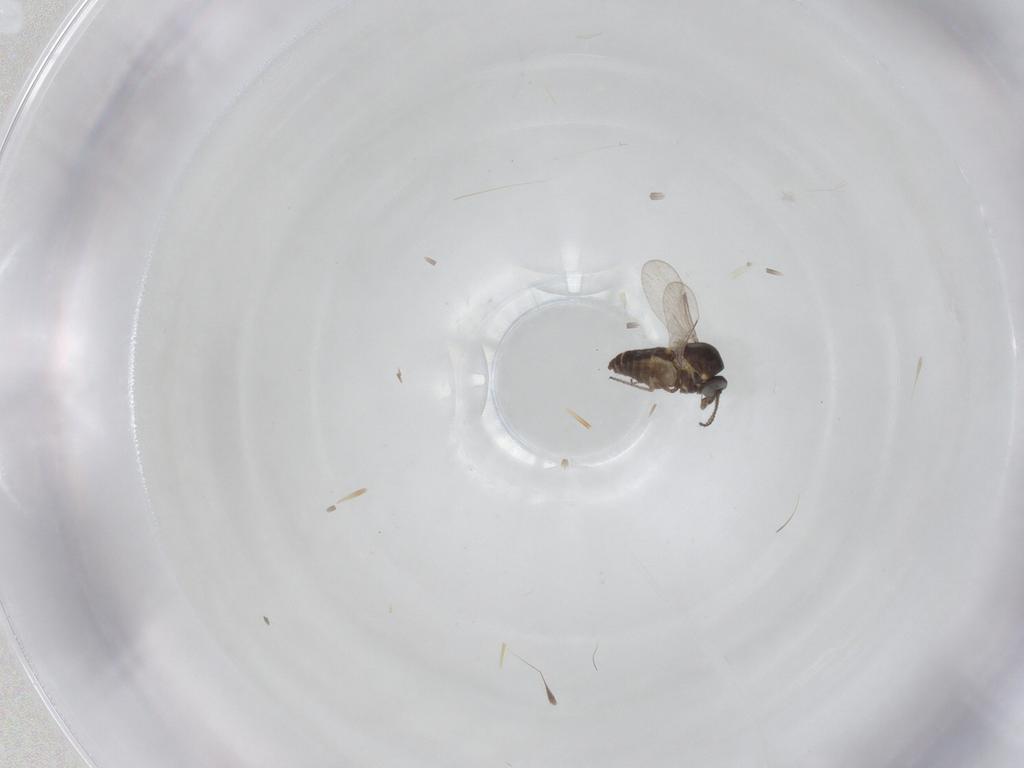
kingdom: Animalia
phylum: Arthropoda
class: Insecta
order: Diptera
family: Ceratopogonidae
